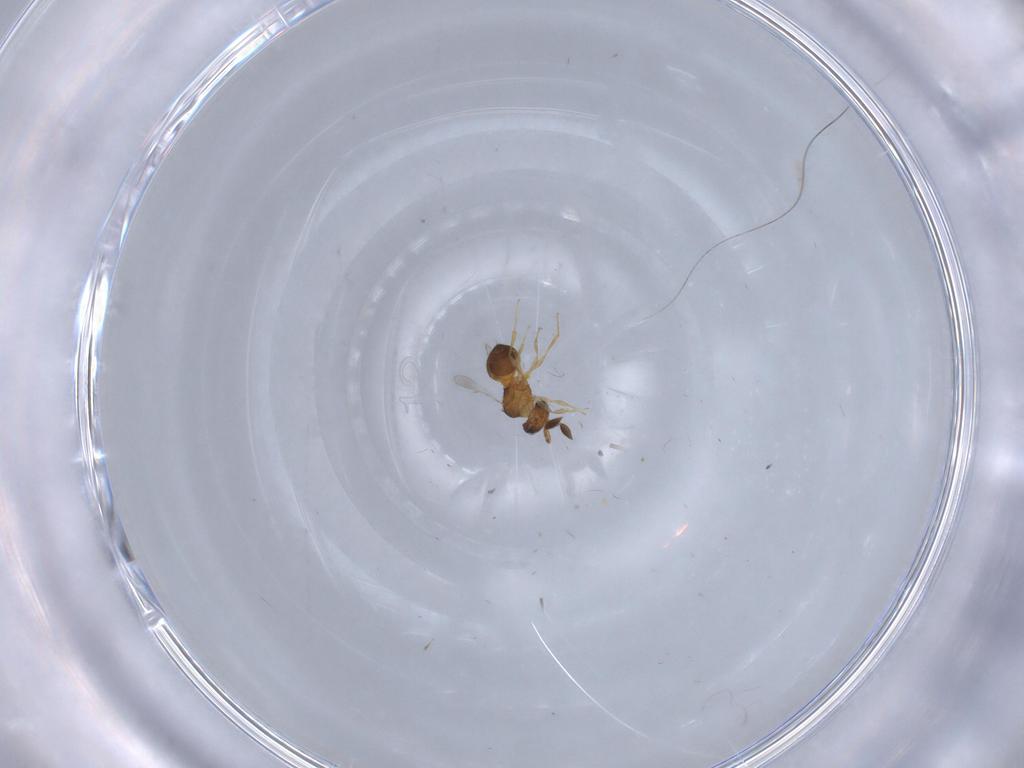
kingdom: Animalia
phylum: Arthropoda
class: Insecta
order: Hymenoptera
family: Scelionidae
